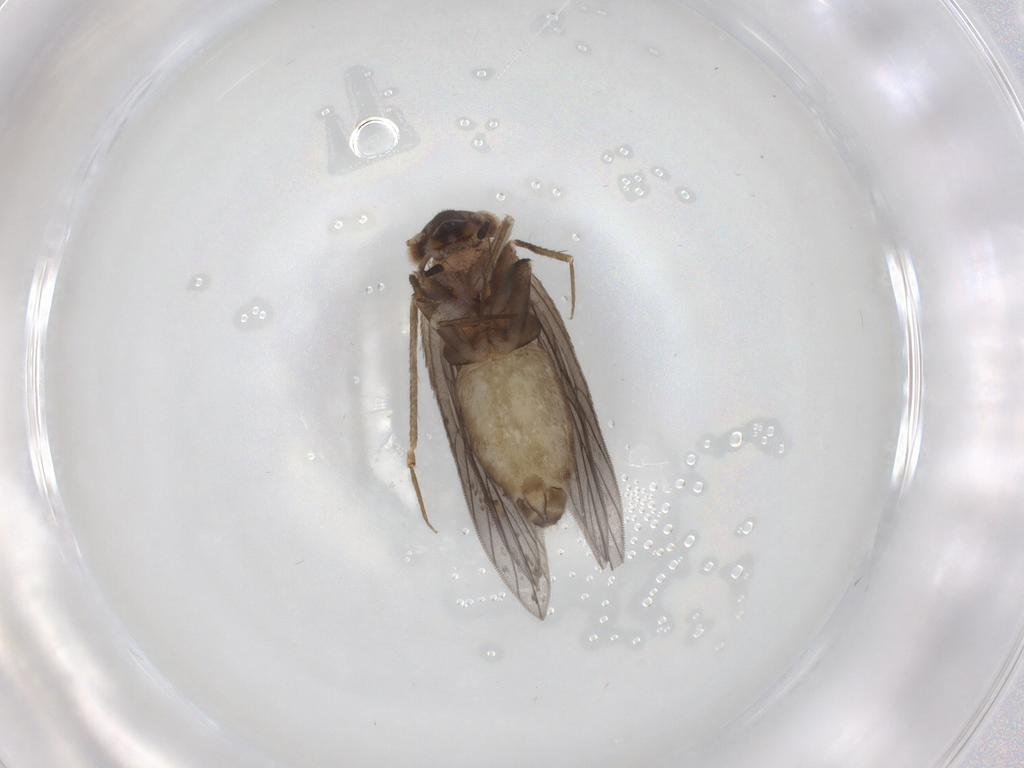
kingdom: Animalia
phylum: Arthropoda
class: Insecta
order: Psocodea
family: Lepidopsocidae
